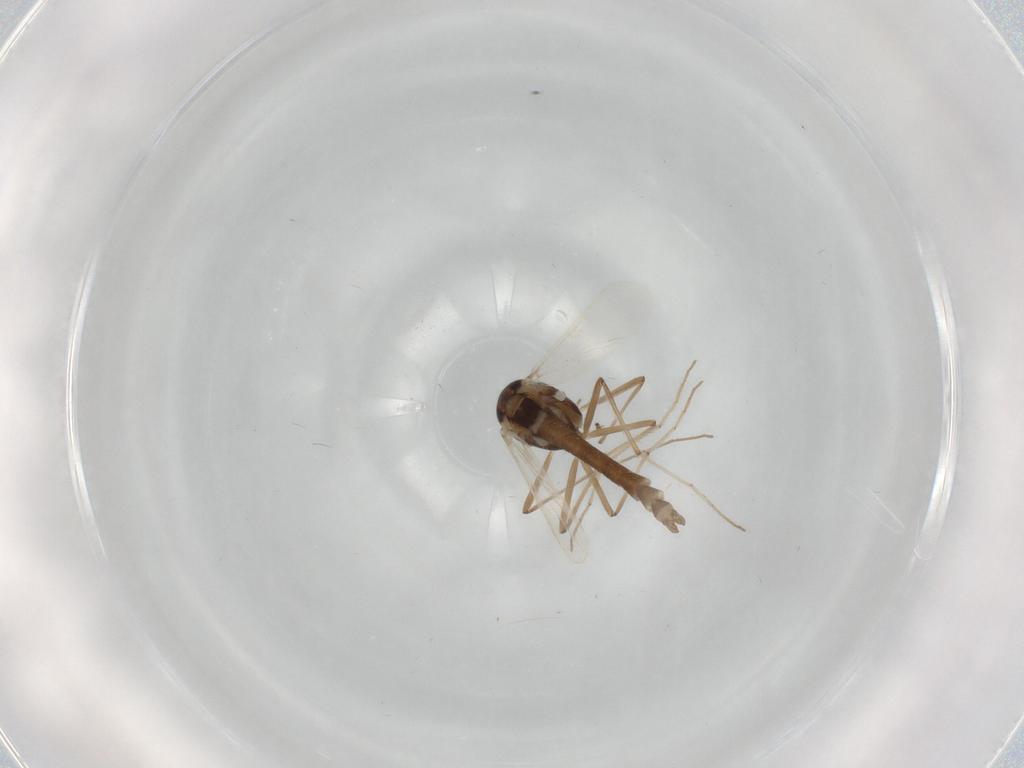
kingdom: Animalia
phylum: Arthropoda
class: Insecta
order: Diptera
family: Chironomidae
